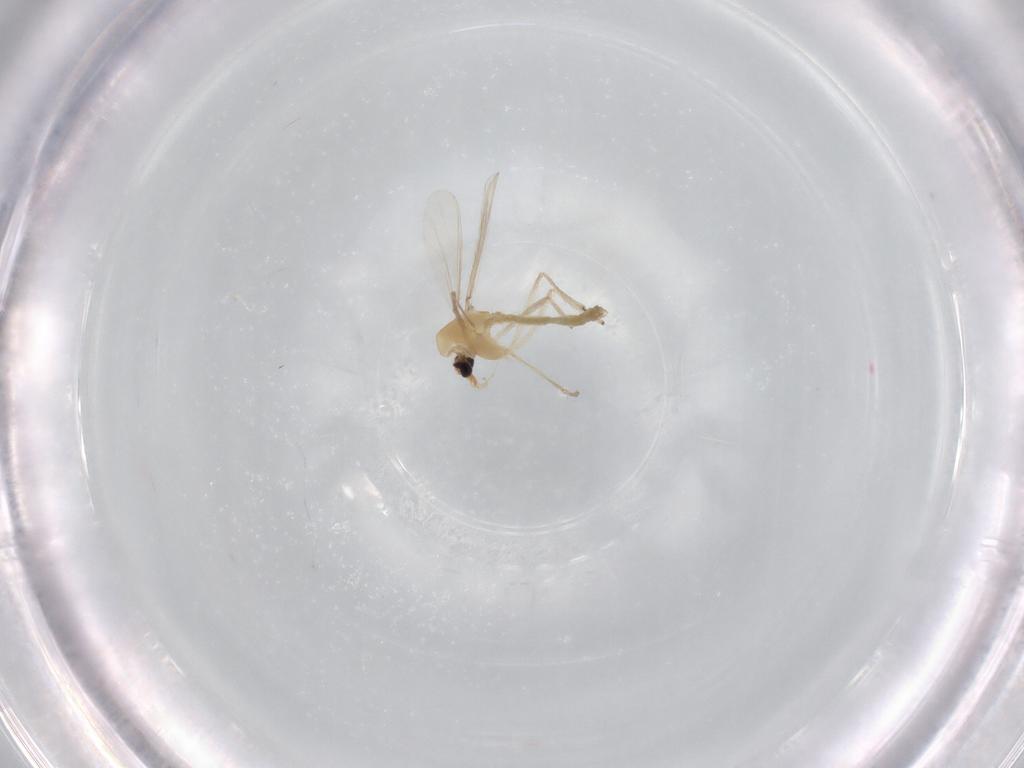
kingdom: Animalia
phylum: Arthropoda
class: Insecta
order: Diptera
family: Chironomidae
